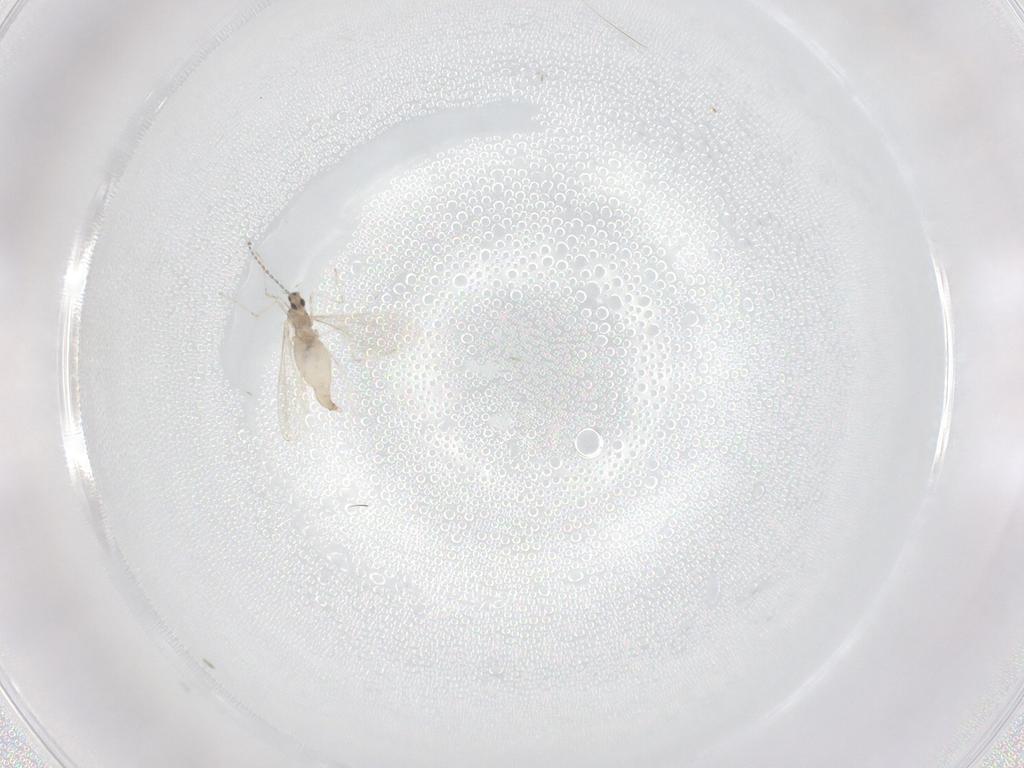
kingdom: Animalia
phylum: Arthropoda
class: Insecta
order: Diptera
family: Cecidomyiidae
